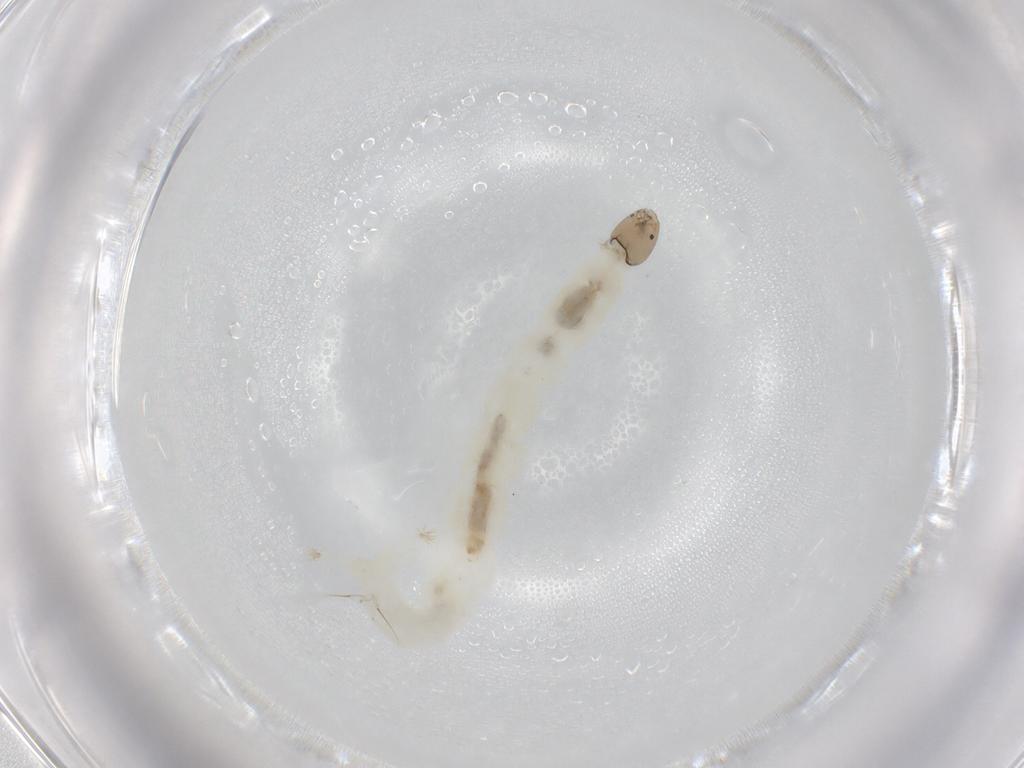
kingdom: Animalia
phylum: Arthropoda
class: Insecta
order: Diptera
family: Chironomidae
